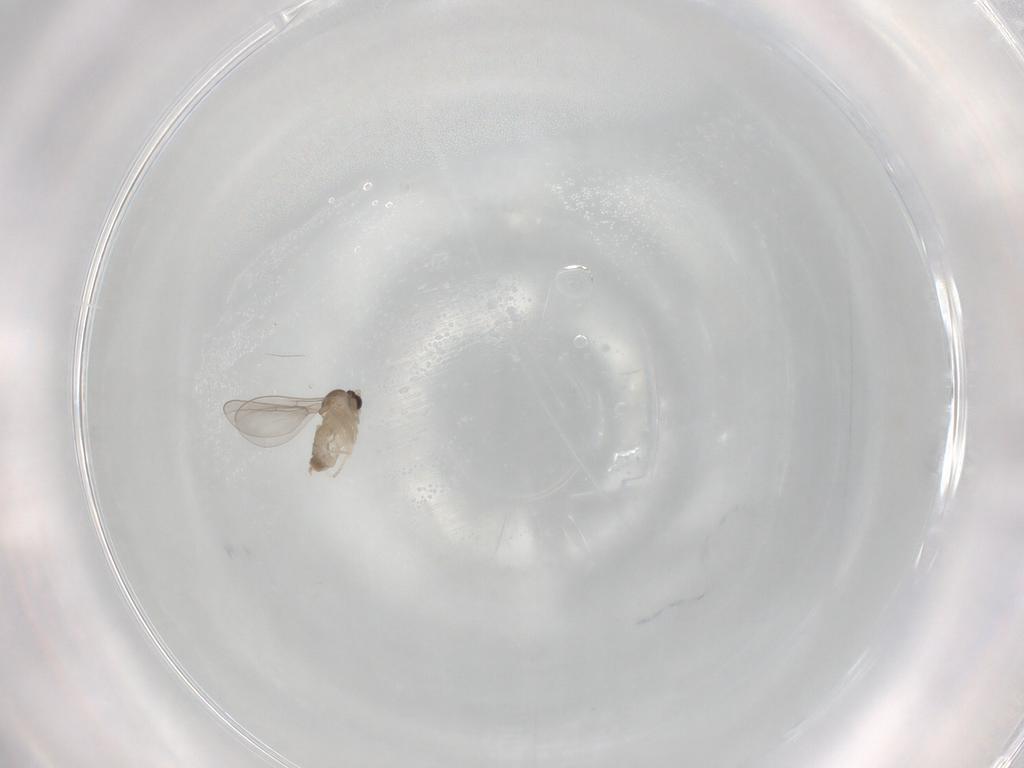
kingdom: Animalia
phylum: Arthropoda
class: Insecta
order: Diptera
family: Cecidomyiidae
